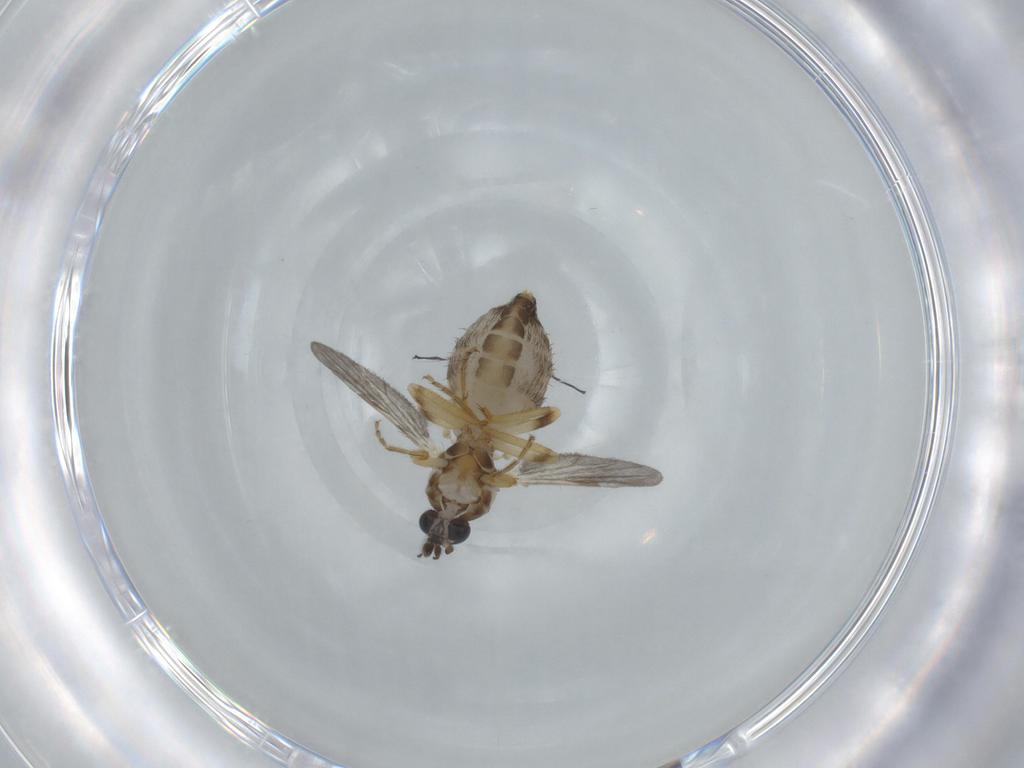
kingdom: Animalia
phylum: Arthropoda
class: Insecta
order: Diptera
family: Ceratopogonidae
